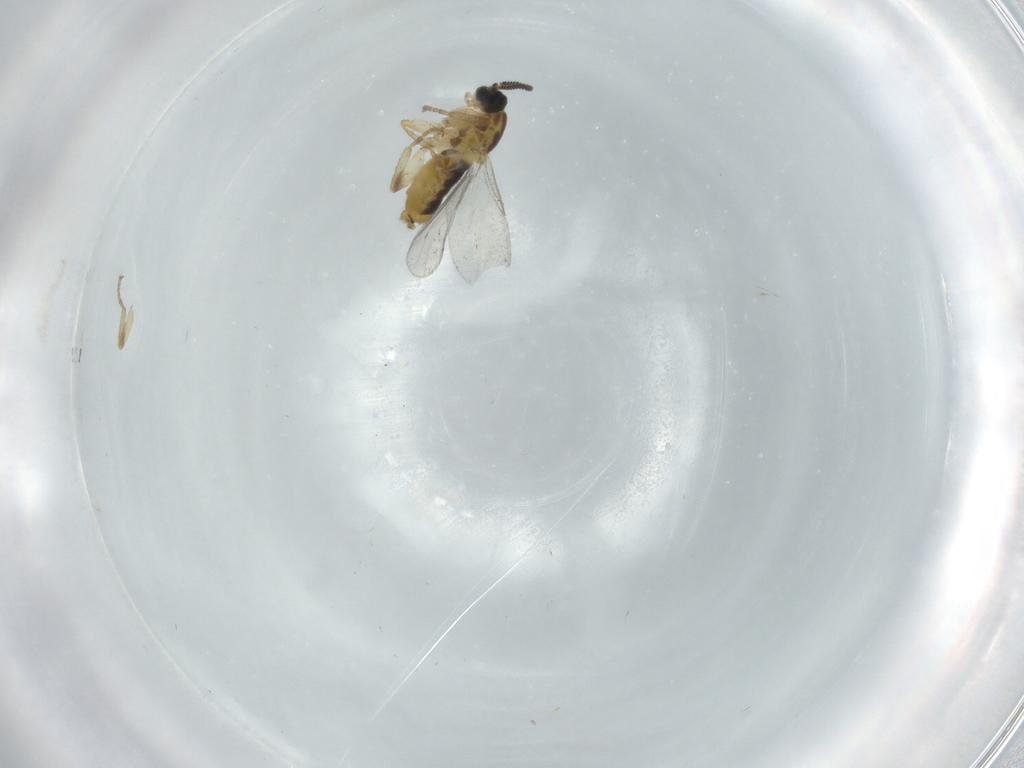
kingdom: Animalia
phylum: Arthropoda
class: Insecta
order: Diptera
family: Scatopsidae
